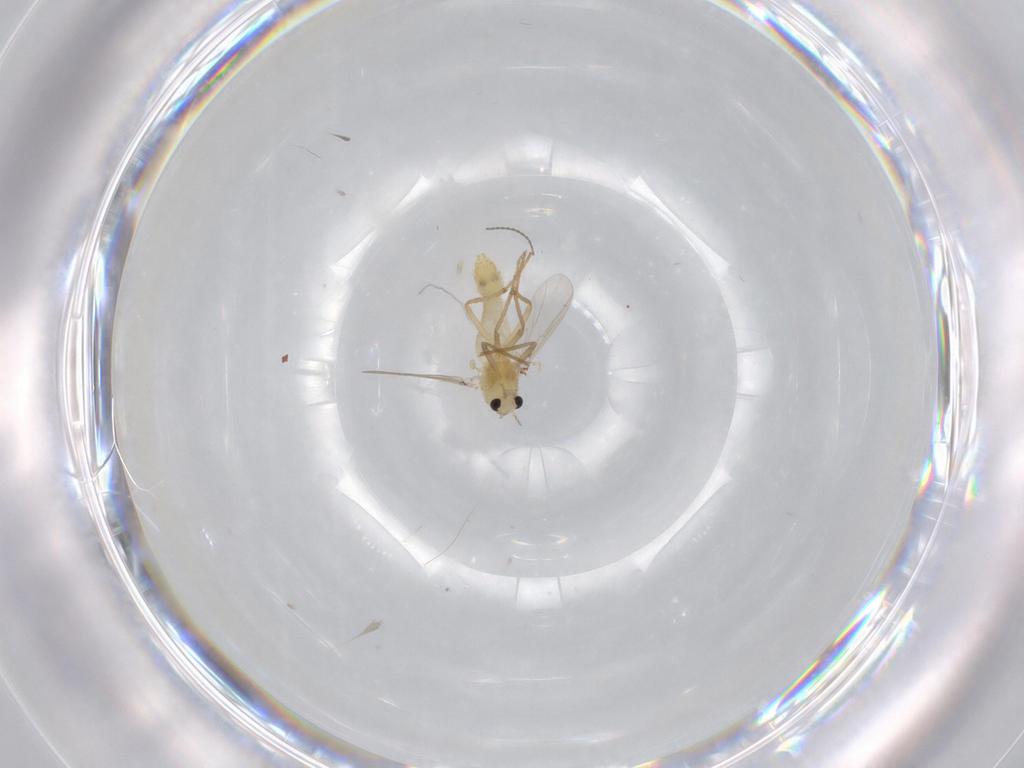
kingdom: Animalia
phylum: Arthropoda
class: Insecta
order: Diptera
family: Chironomidae
